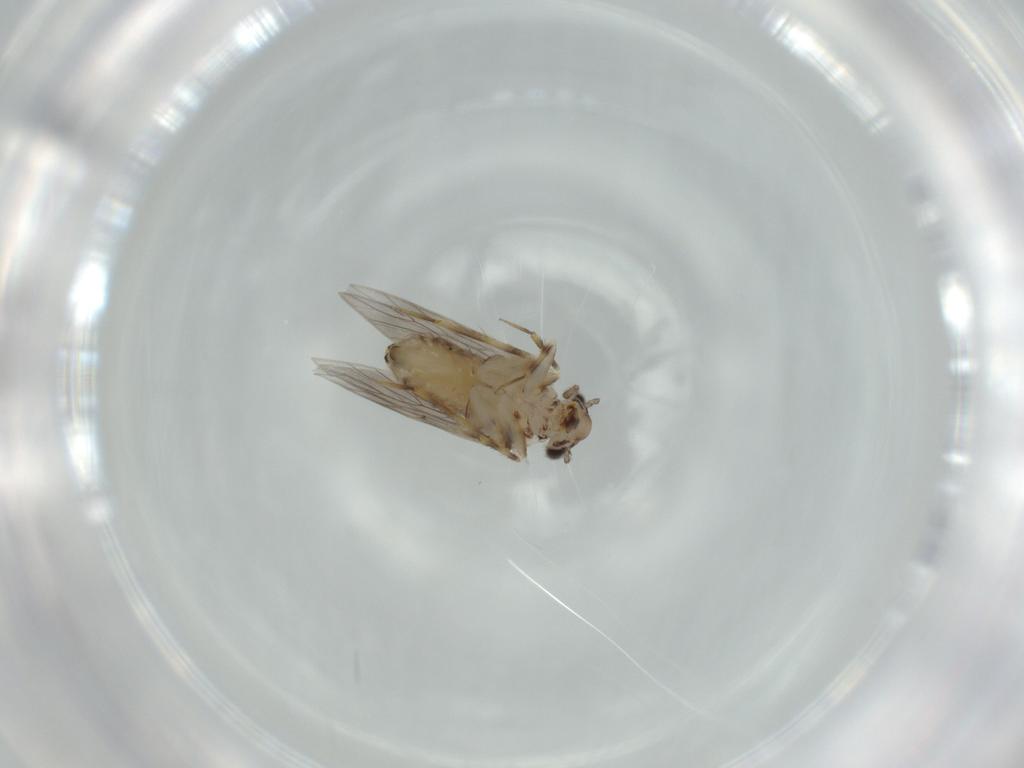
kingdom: Animalia
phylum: Arthropoda
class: Insecta
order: Psocodea
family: Lepidopsocidae
